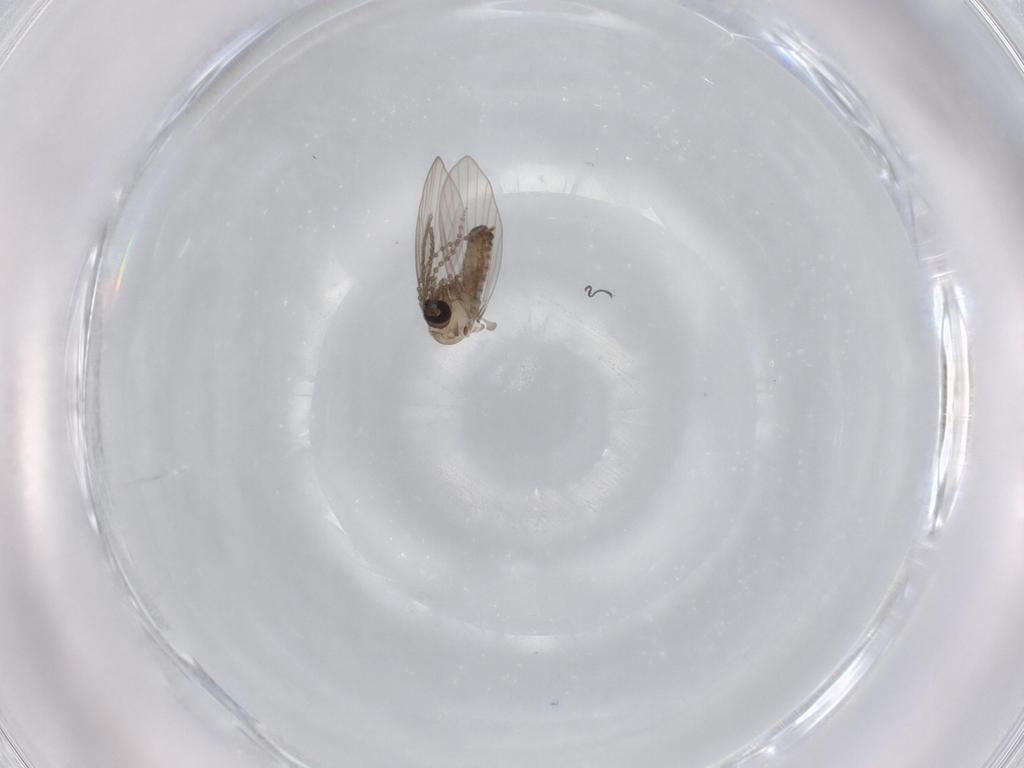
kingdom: Animalia
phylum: Arthropoda
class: Insecta
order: Diptera
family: Psychodidae
